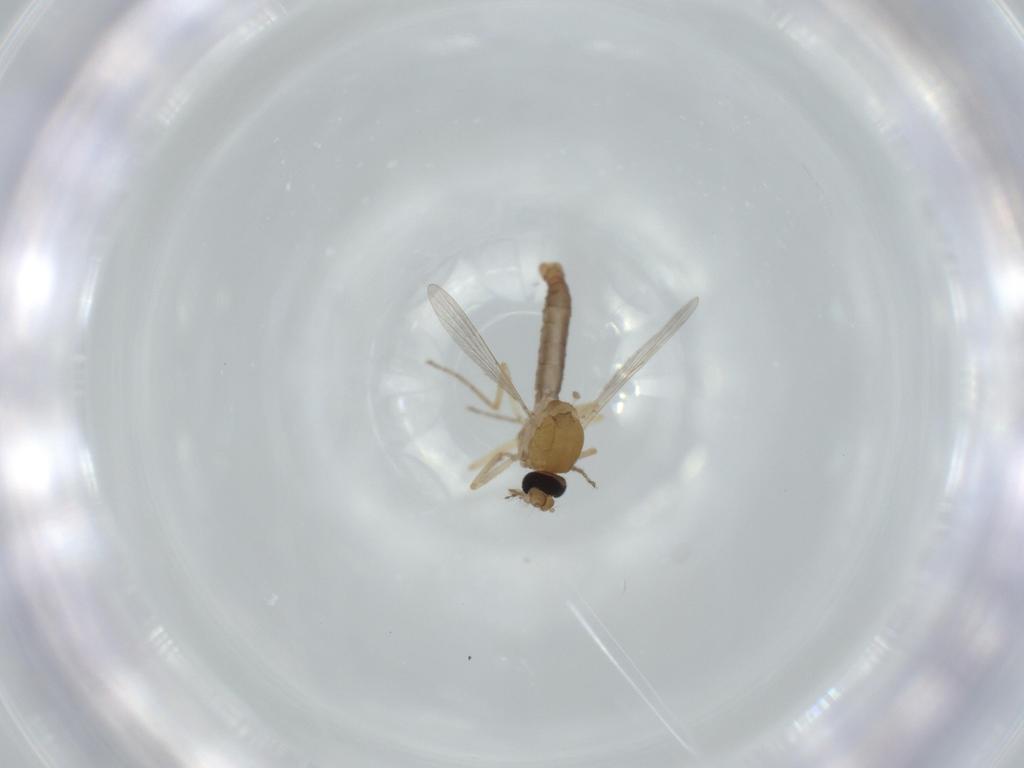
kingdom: Animalia
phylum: Arthropoda
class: Insecta
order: Diptera
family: Ceratopogonidae
